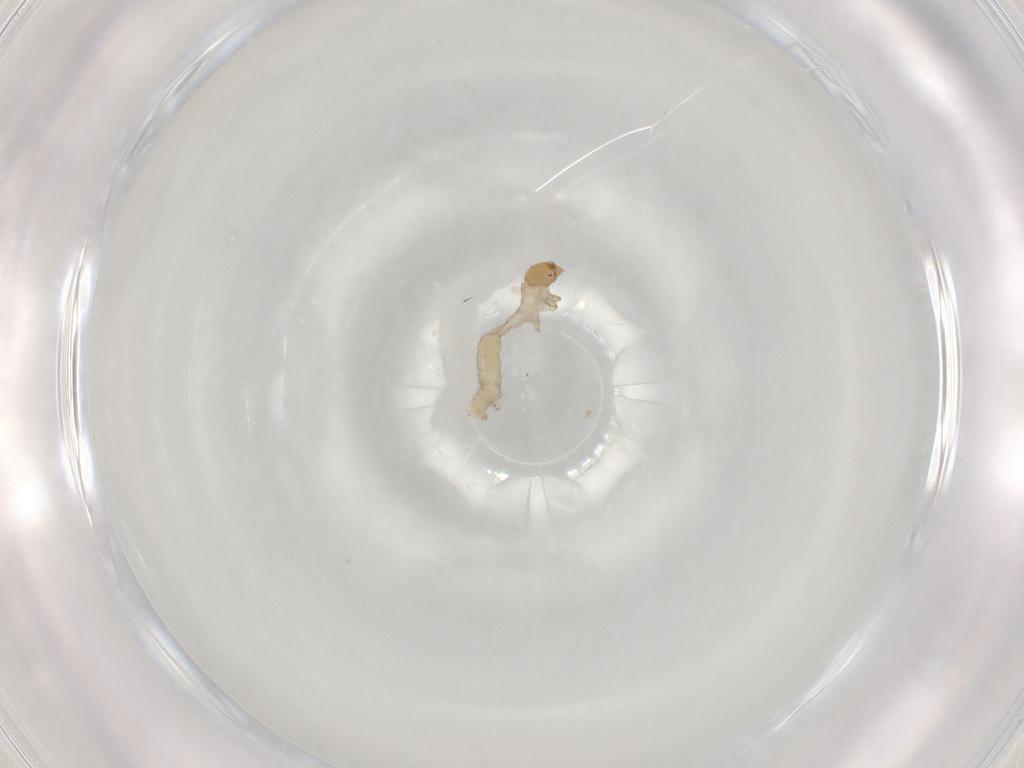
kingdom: Animalia
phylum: Arthropoda
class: Insecta
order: Lepidoptera
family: Geometridae
